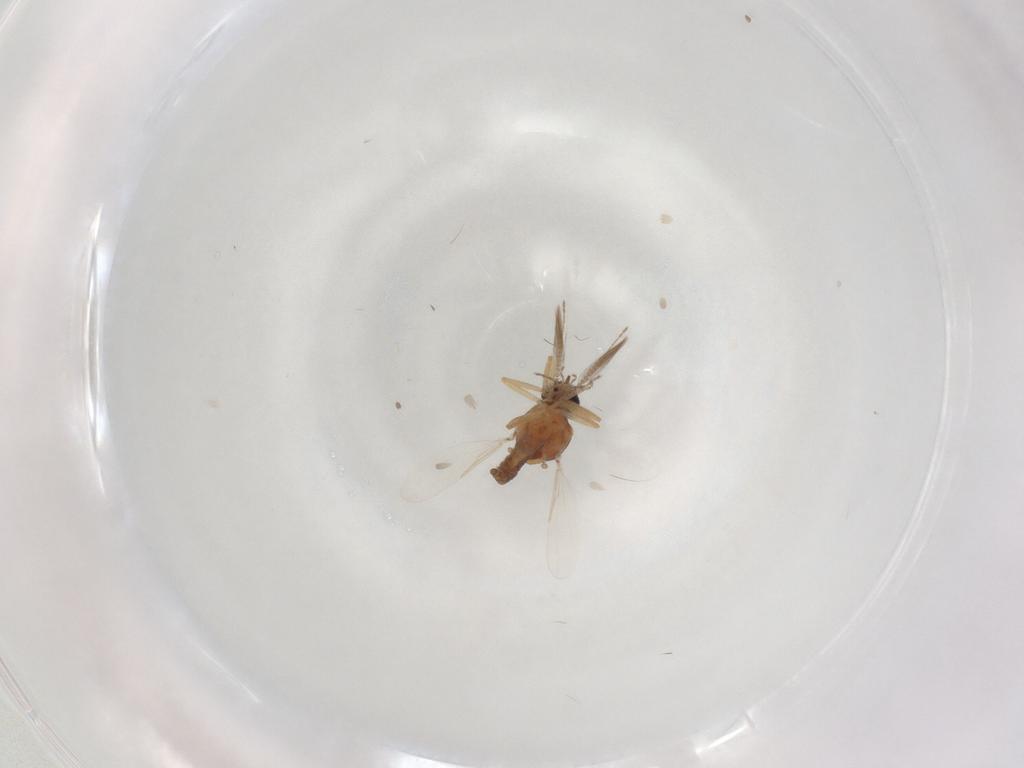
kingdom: Animalia
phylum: Arthropoda
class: Insecta
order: Diptera
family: Ceratopogonidae
